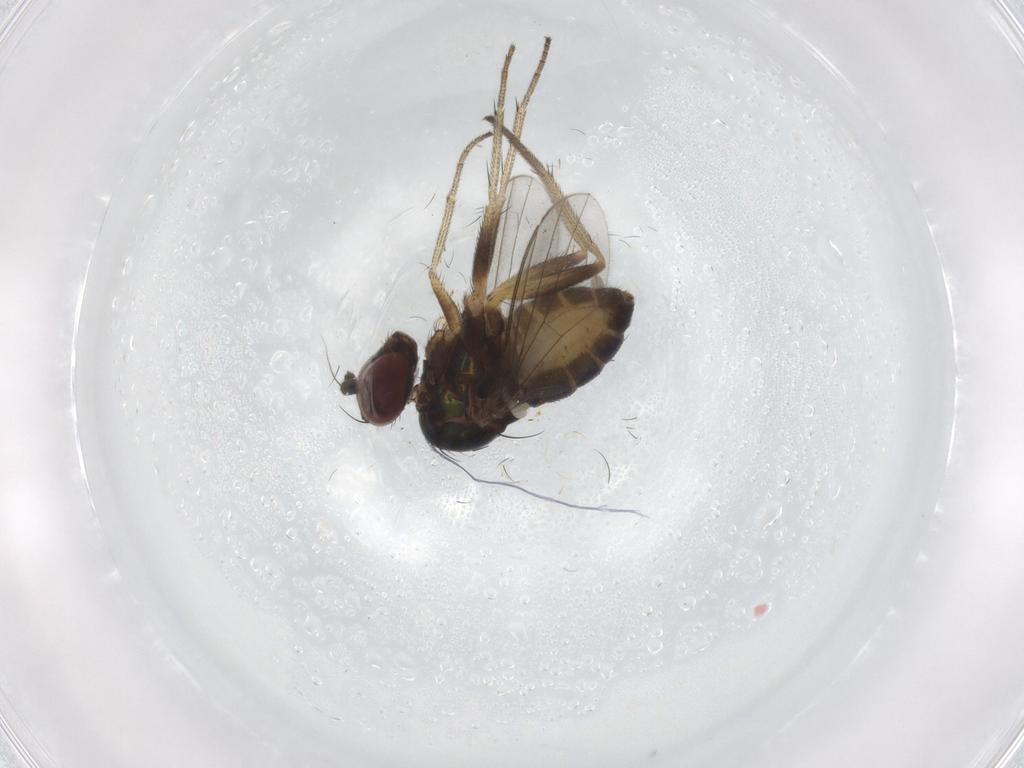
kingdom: Animalia
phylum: Arthropoda
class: Insecta
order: Diptera
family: Dolichopodidae
